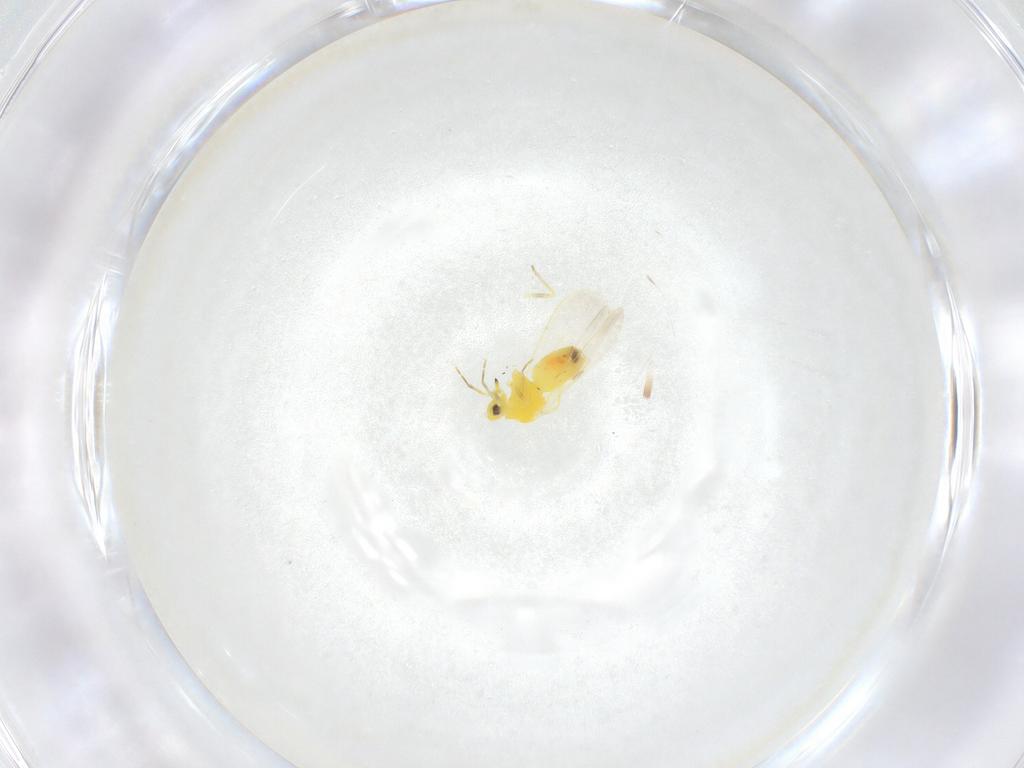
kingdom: Animalia
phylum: Arthropoda
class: Insecta
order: Hemiptera
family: Aleyrodidae
